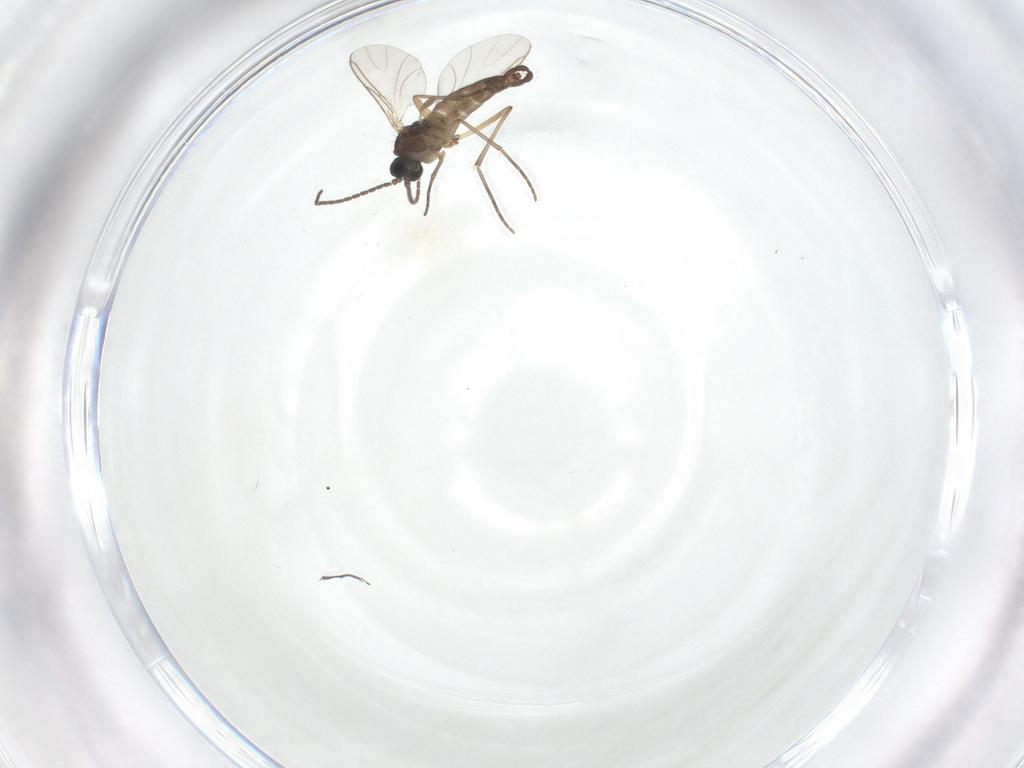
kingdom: Animalia
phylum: Arthropoda
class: Insecta
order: Diptera
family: Sciaridae
